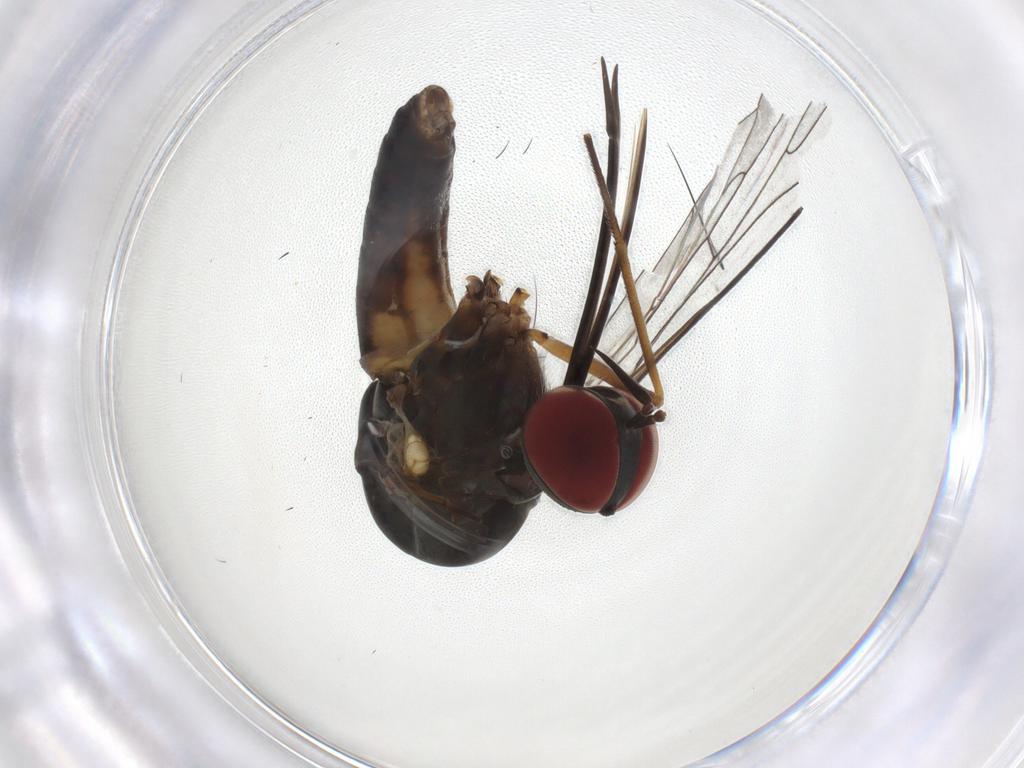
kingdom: Animalia
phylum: Arthropoda
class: Insecta
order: Diptera
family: Bombyliidae
